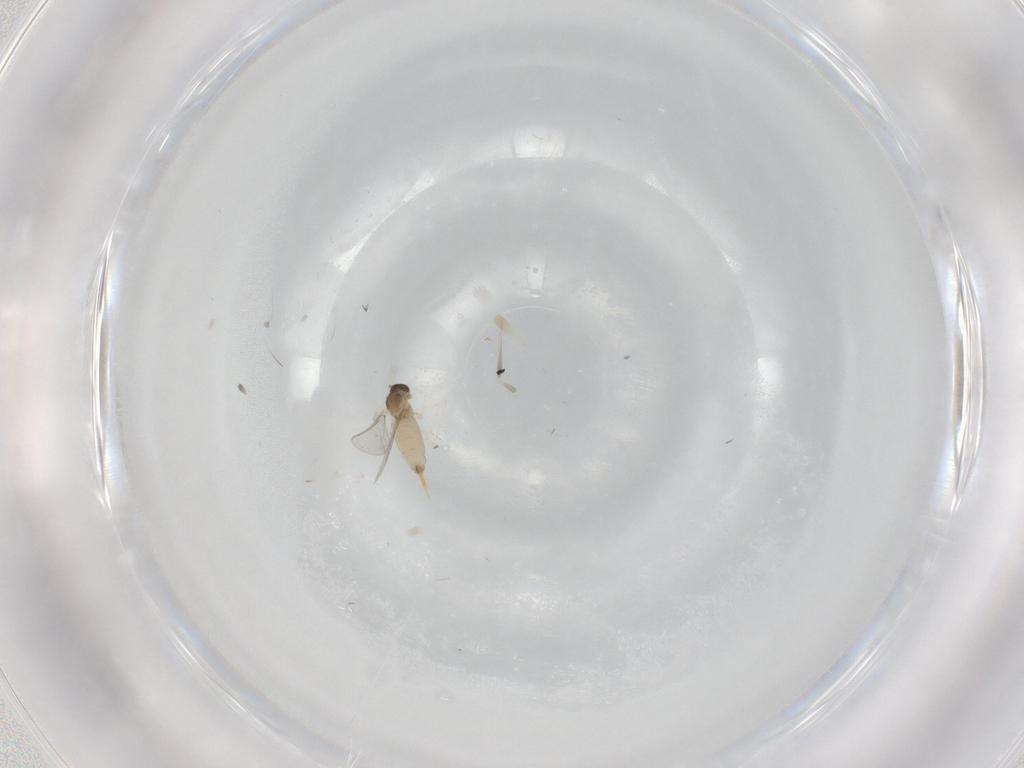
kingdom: Animalia
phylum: Arthropoda
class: Insecta
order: Diptera
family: Cecidomyiidae
